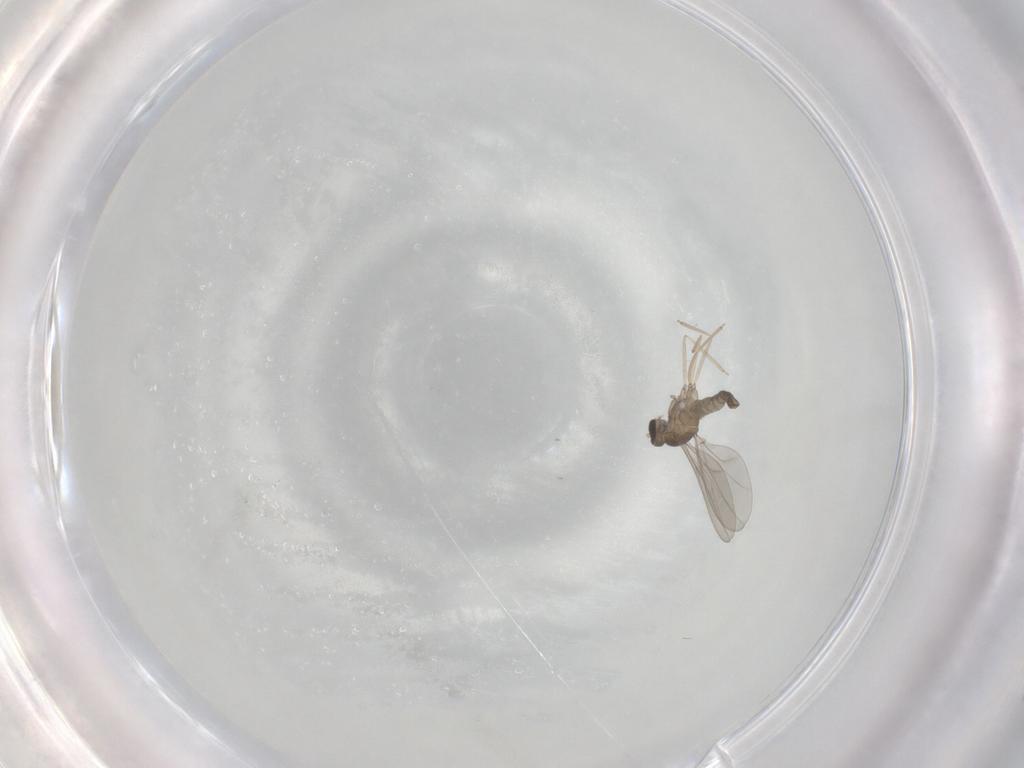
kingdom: Animalia
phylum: Arthropoda
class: Insecta
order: Diptera
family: Cecidomyiidae
